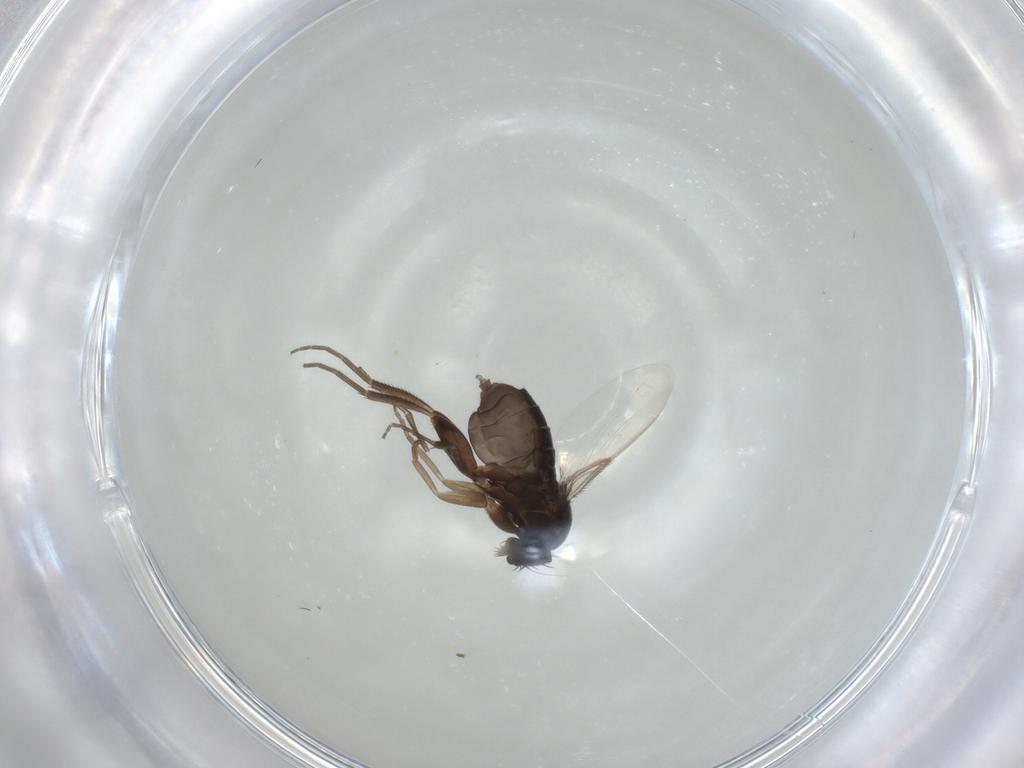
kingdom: Animalia
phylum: Arthropoda
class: Insecta
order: Diptera
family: Phoridae
